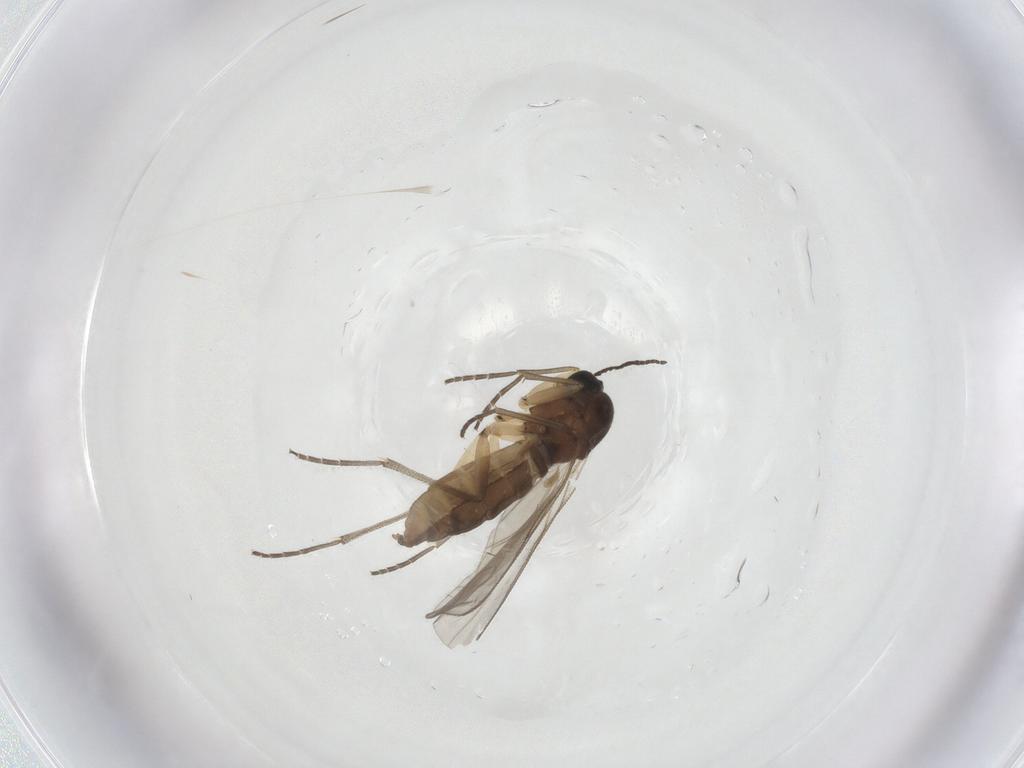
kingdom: Animalia
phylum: Arthropoda
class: Insecta
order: Diptera
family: Sciaridae
